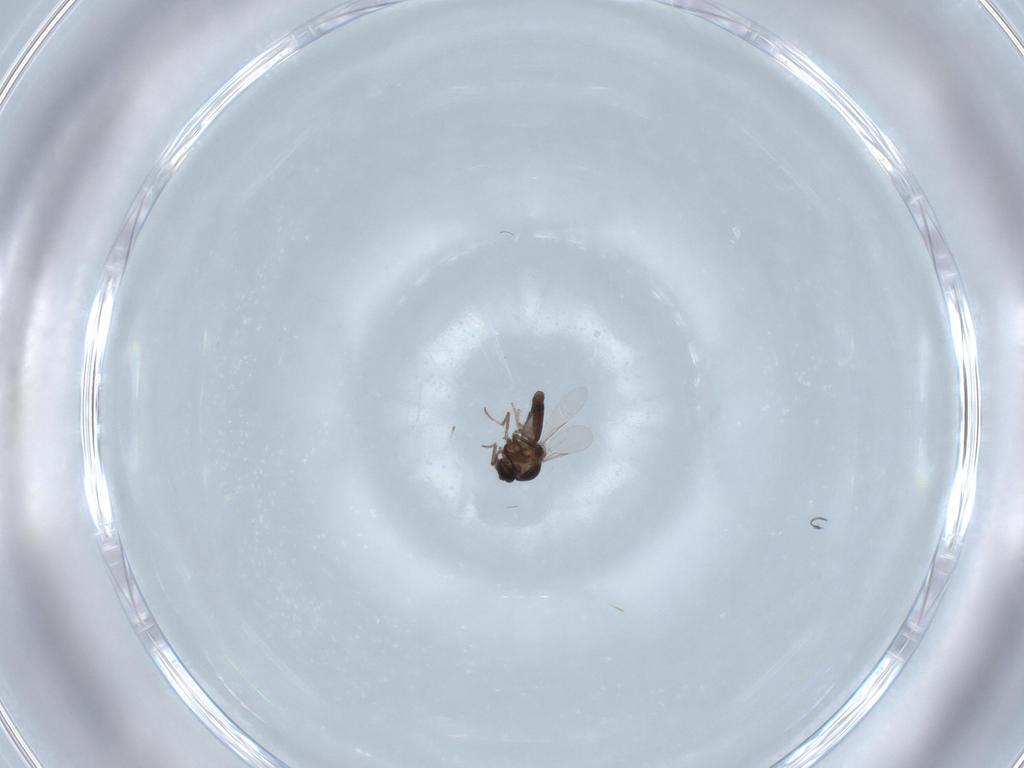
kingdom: Animalia
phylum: Arthropoda
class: Insecta
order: Diptera
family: Ceratopogonidae
